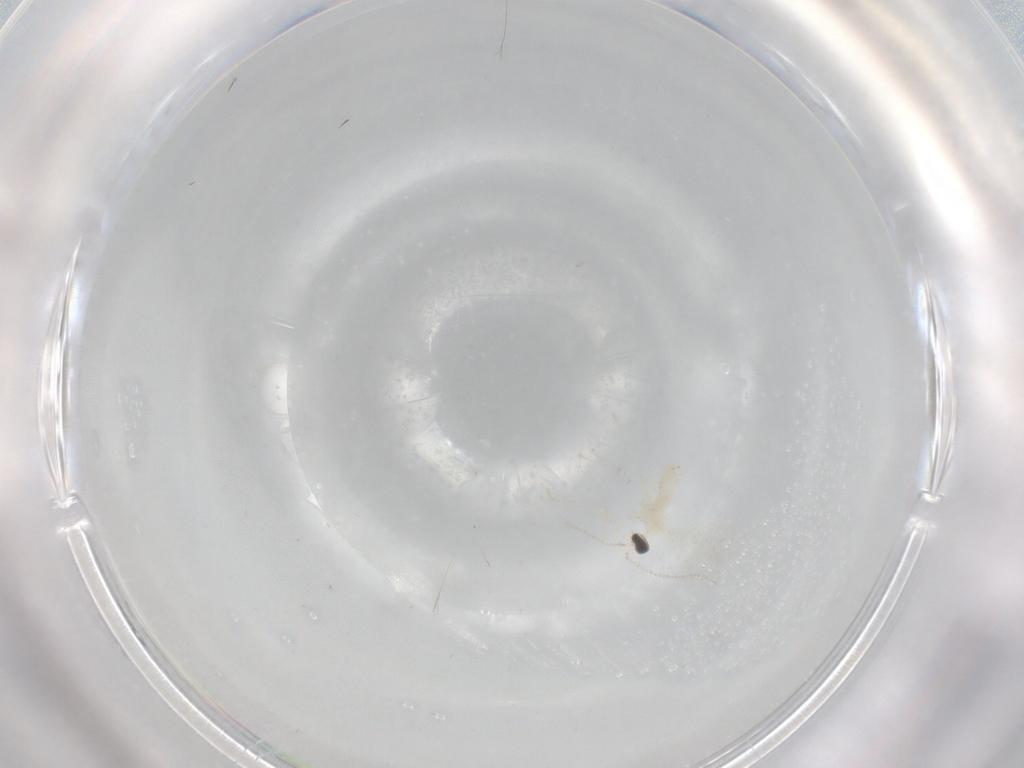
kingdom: Animalia
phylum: Arthropoda
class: Insecta
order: Diptera
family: Cecidomyiidae
